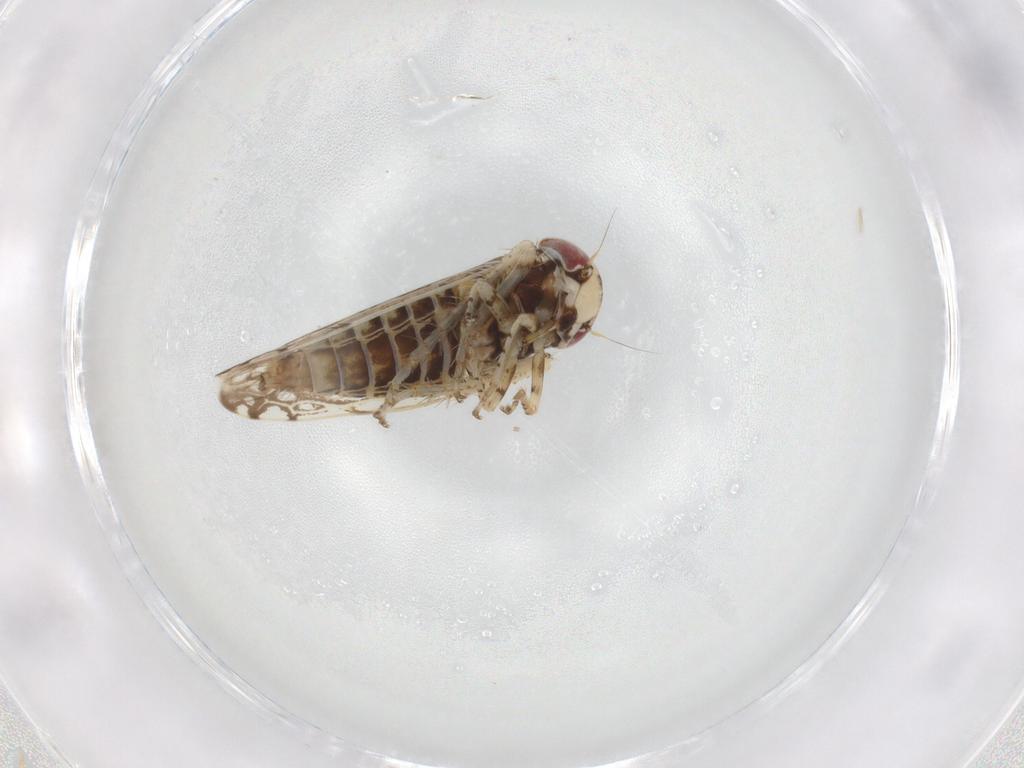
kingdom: Animalia
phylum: Arthropoda
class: Insecta
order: Hemiptera
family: Cicadellidae
